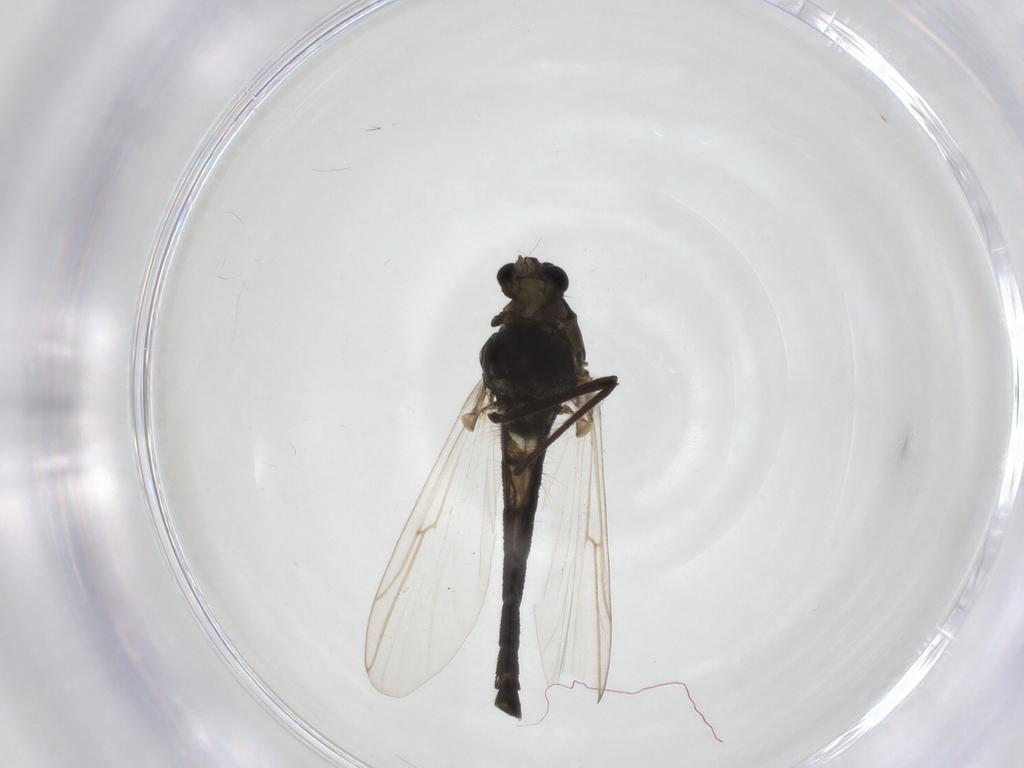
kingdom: Animalia
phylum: Arthropoda
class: Insecta
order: Diptera
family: Chironomidae
